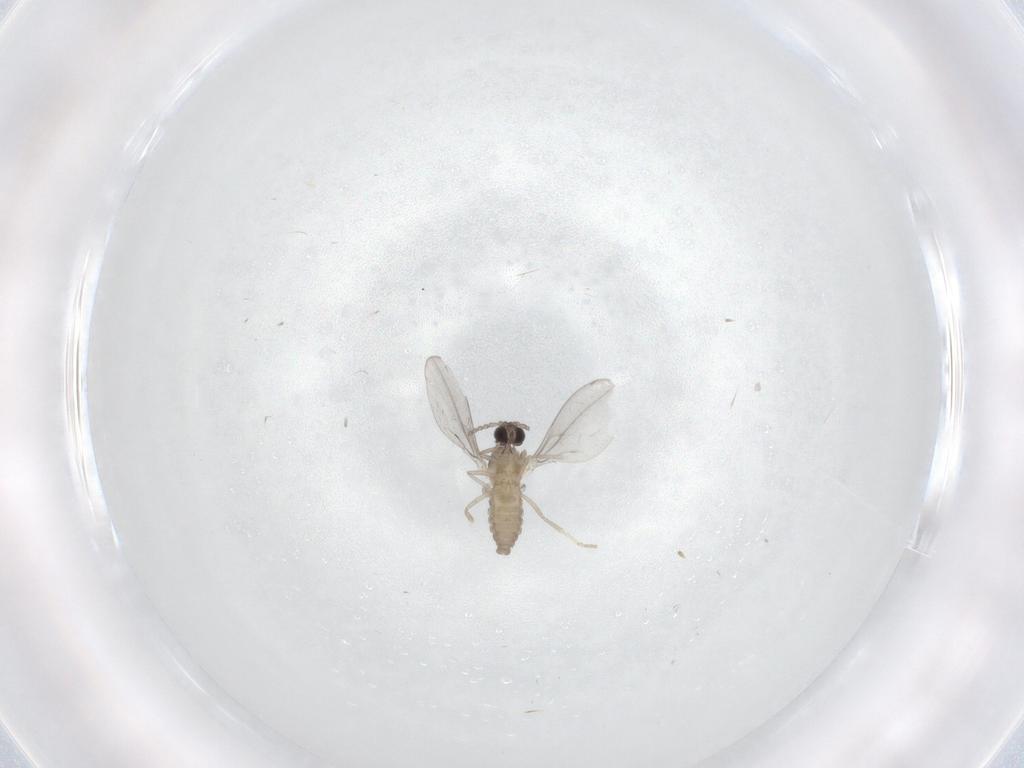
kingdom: Animalia
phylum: Arthropoda
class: Insecta
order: Diptera
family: Cecidomyiidae
